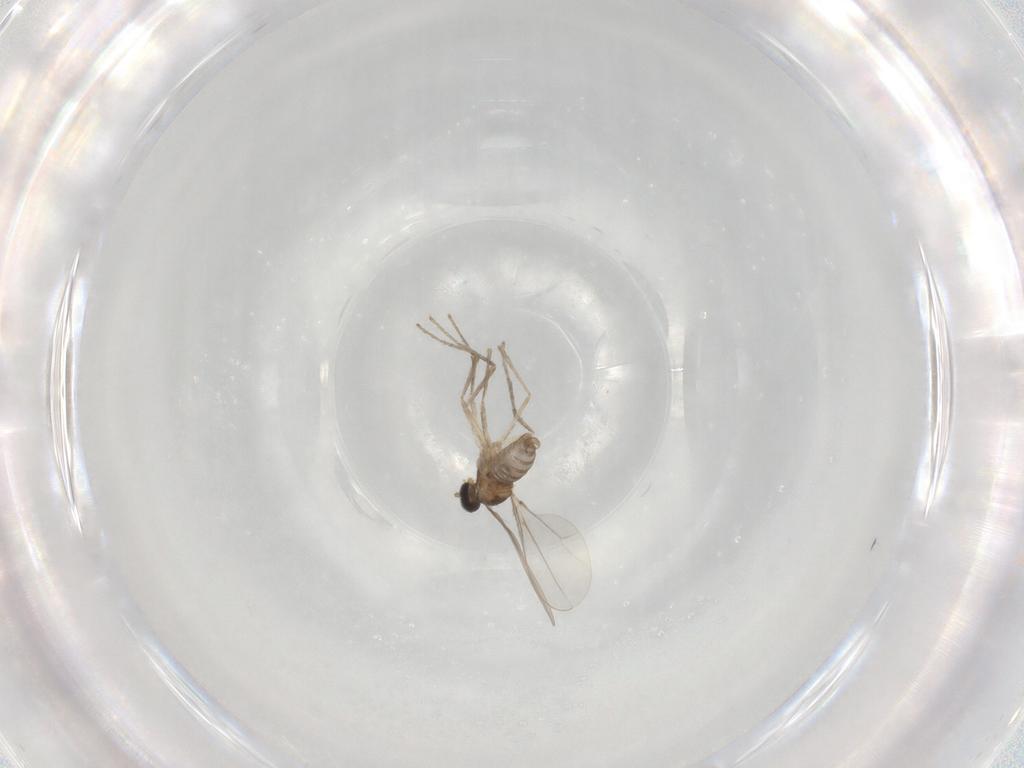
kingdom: Animalia
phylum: Arthropoda
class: Insecta
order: Diptera
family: Cecidomyiidae
